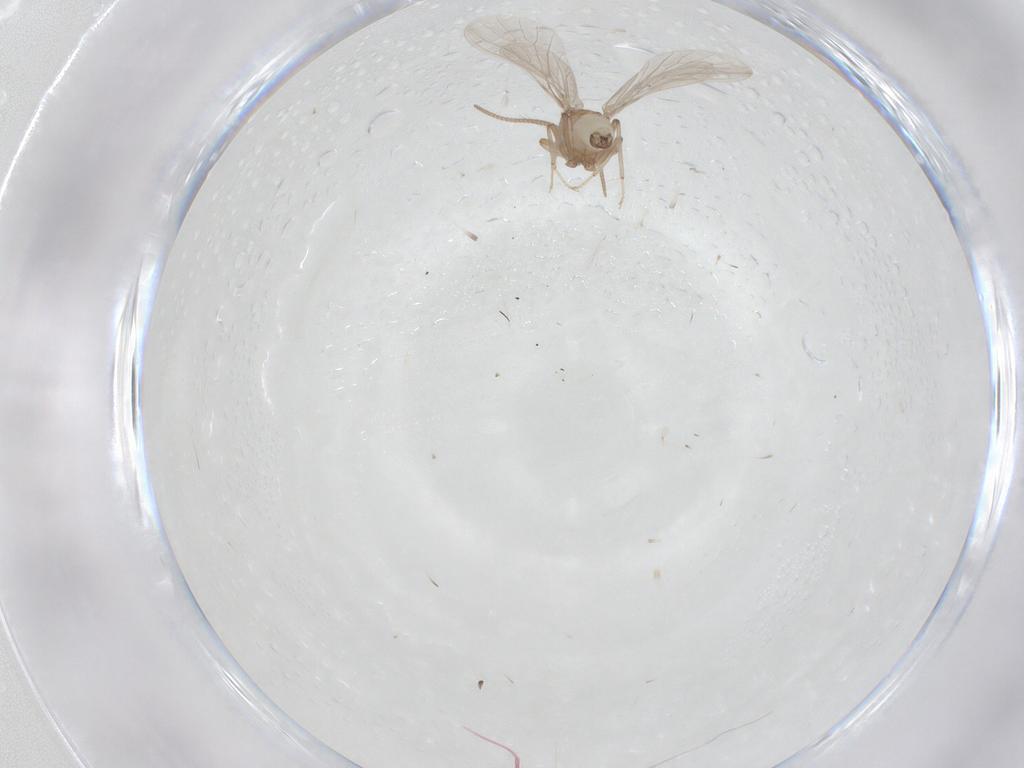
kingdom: Animalia
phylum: Arthropoda
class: Insecta
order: Neuroptera
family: Coniopterygidae
